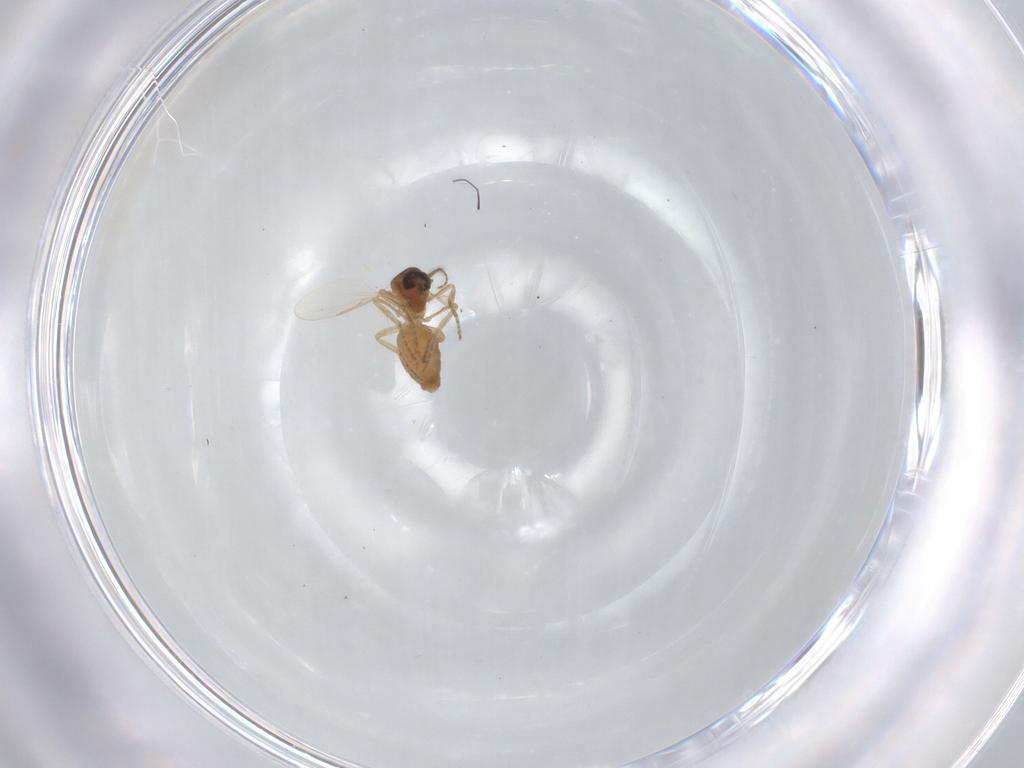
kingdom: Animalia
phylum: Arthropoda
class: Insecta
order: Diptera
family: Ceratopogonidae
